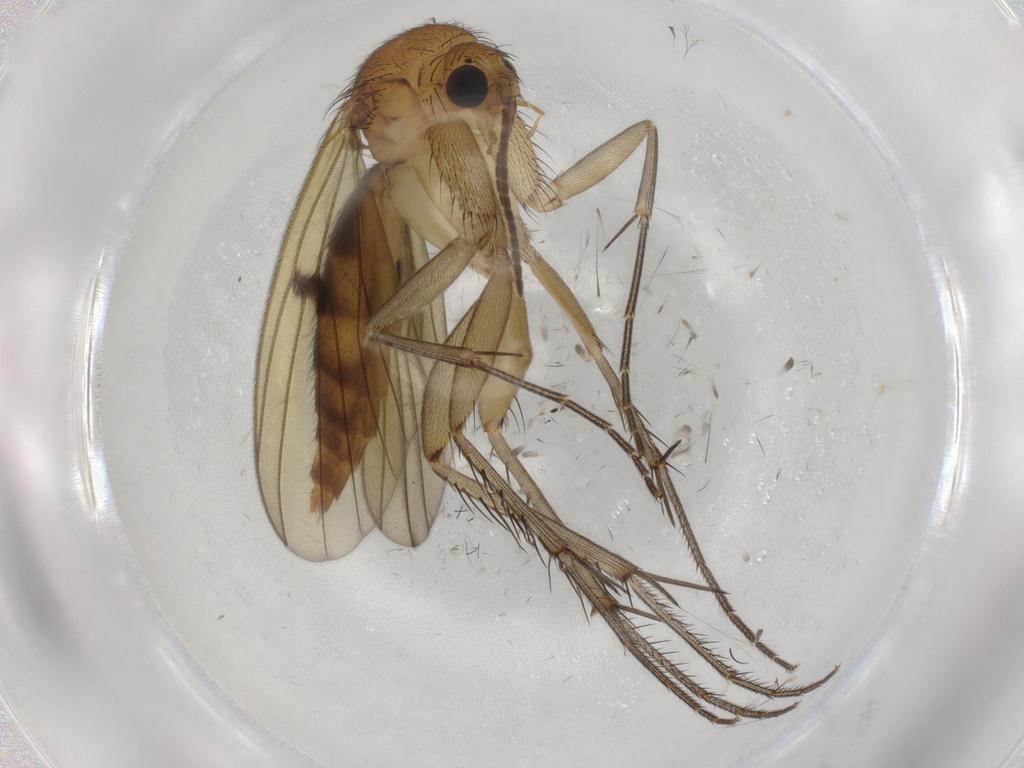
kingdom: Animalia
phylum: Arthropoda
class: Insecta
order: Diptera
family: Mycetophilidae
